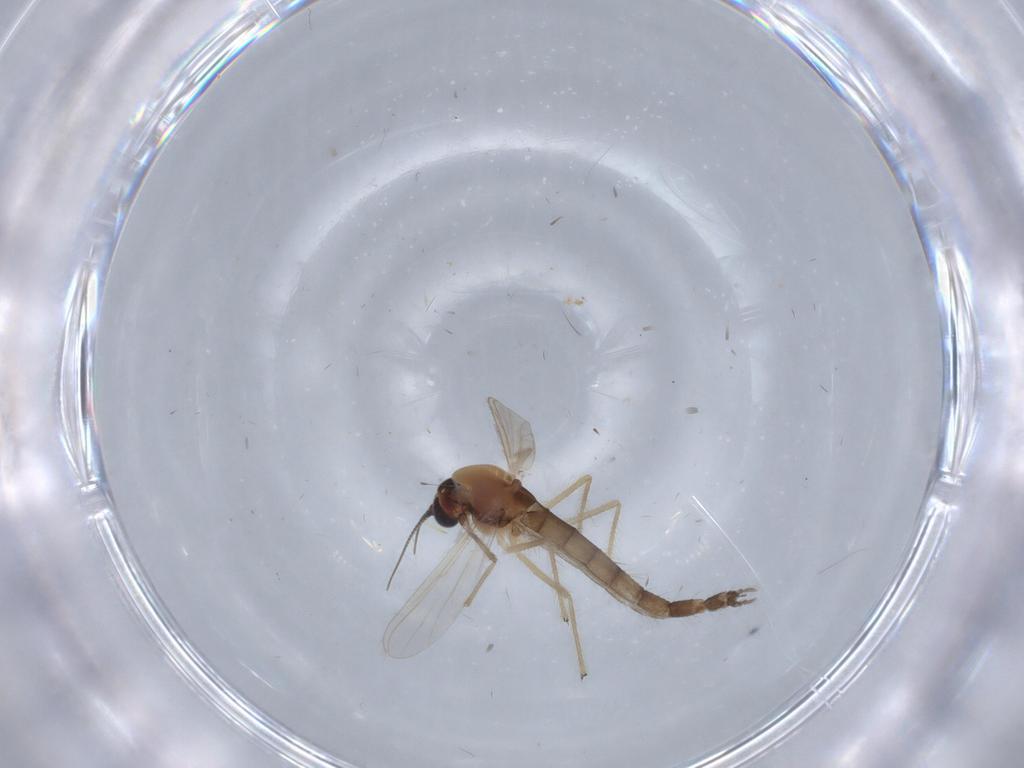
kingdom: Animalia
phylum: Arthropoda
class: Insecta
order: Diptera
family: Chironomidae
